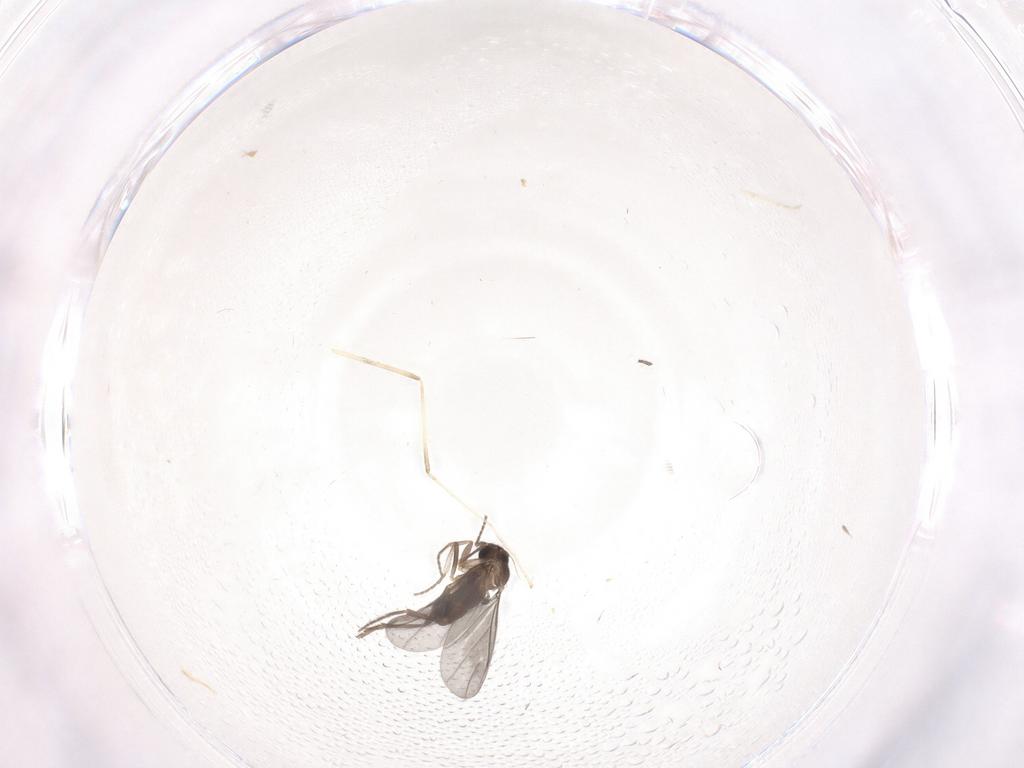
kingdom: Animalia
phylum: Arthropoda
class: Insecta
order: Diptera
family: Phoridae
